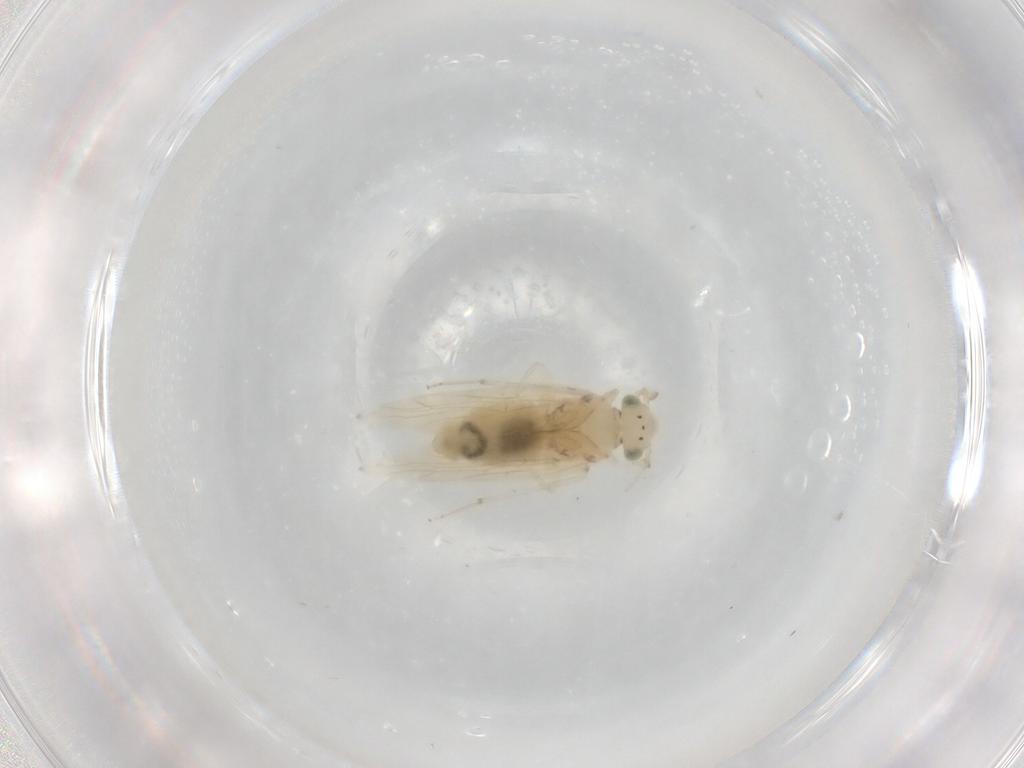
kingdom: Animalia
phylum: Arthropoda
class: Insecta
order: Psocodea
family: Lepidopsocidae
